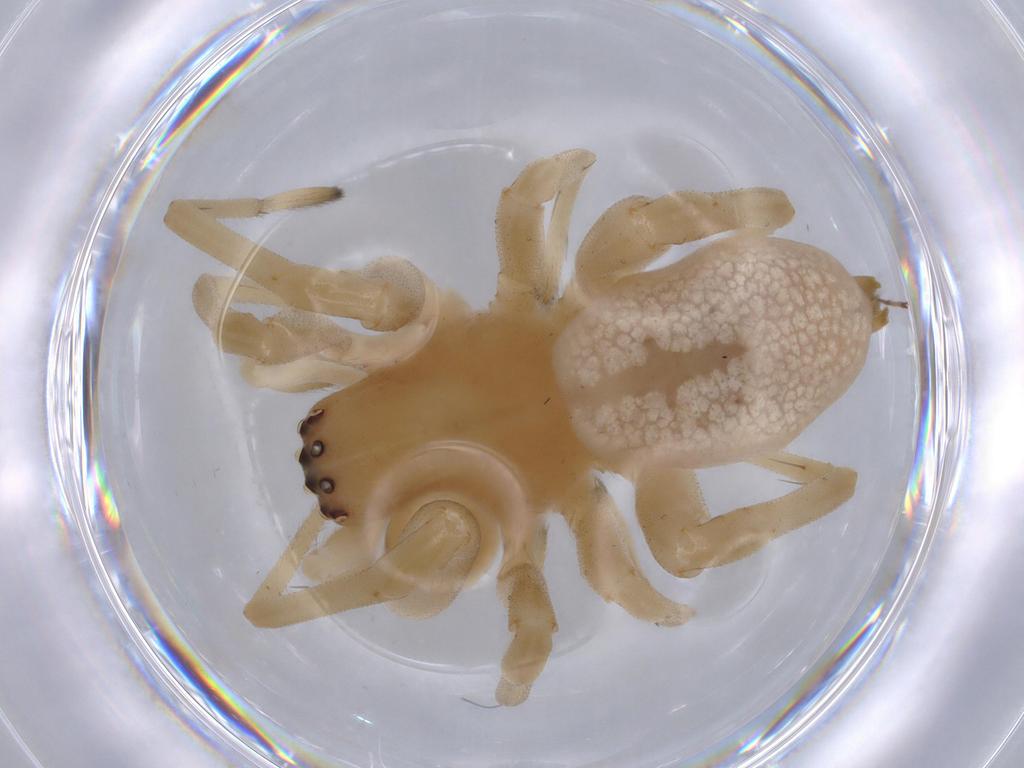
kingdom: Animalia
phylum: Arthropoda
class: Arachnida
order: Araneae
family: Cheiracanthiidae
